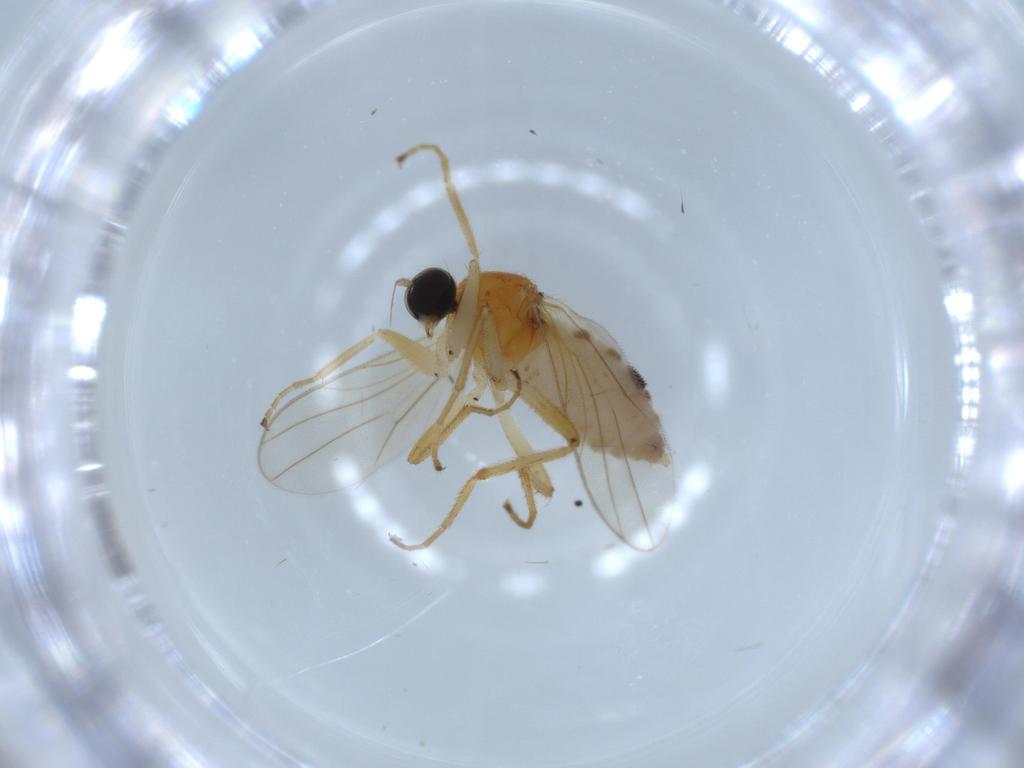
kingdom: Animalia
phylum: Arthropoda
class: Insecta
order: Diptera
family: Hybotidae
